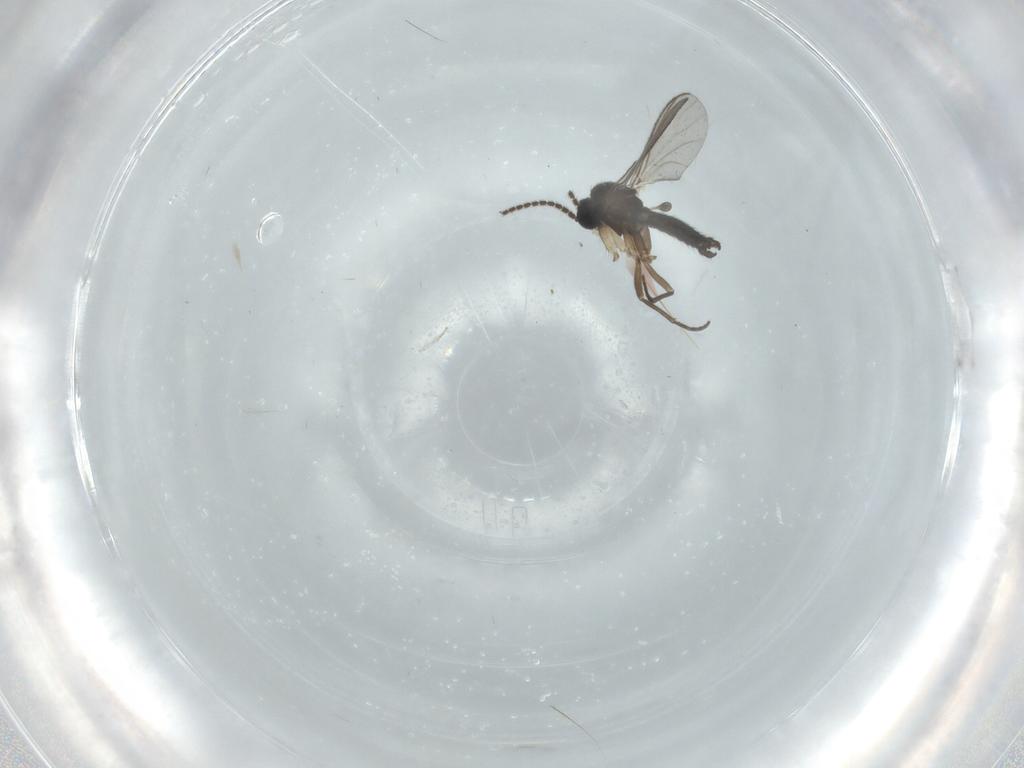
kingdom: Animalia
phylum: Arthropoda
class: Insecta
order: Diptera
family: Sciaridae
